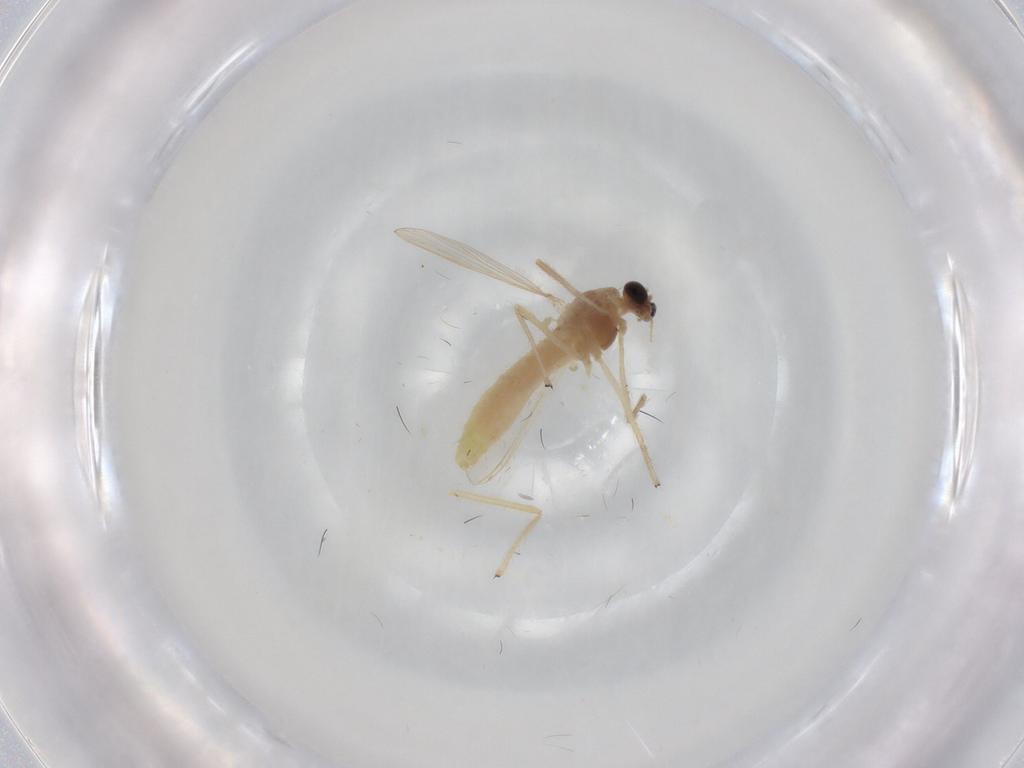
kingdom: Animalia
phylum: Arthropoda
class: Insecta
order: Diptera
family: Chironomidae
